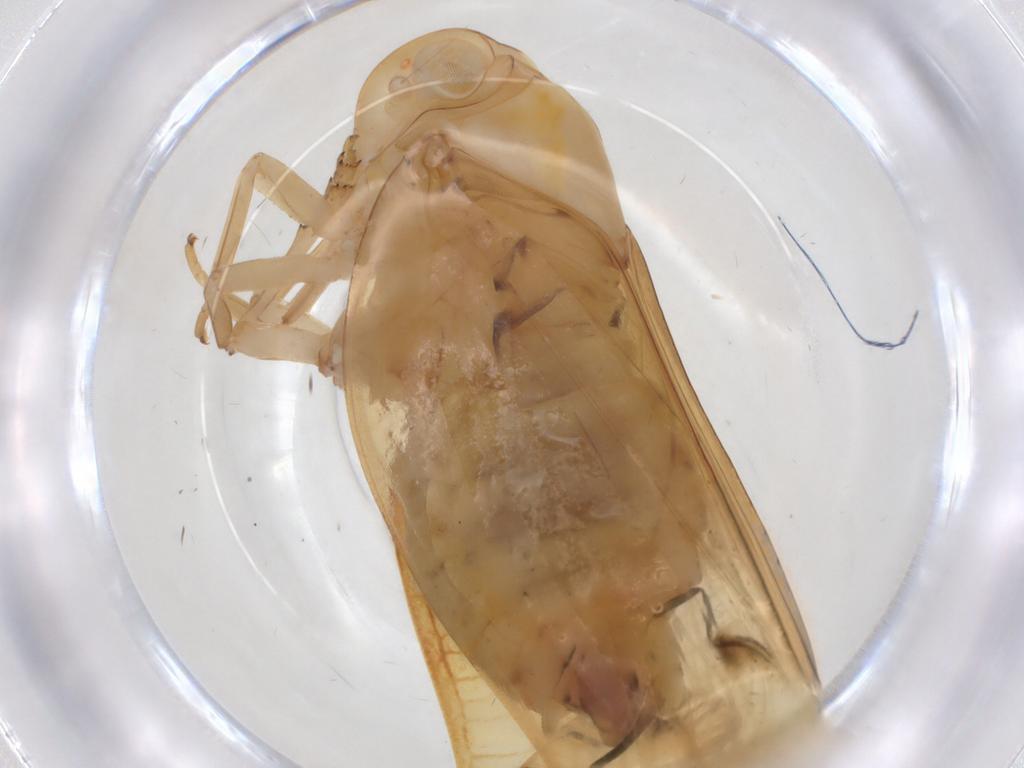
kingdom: Animalia
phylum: Arthropoda
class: Insecta
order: Hemiptera
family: Nogodinidae
